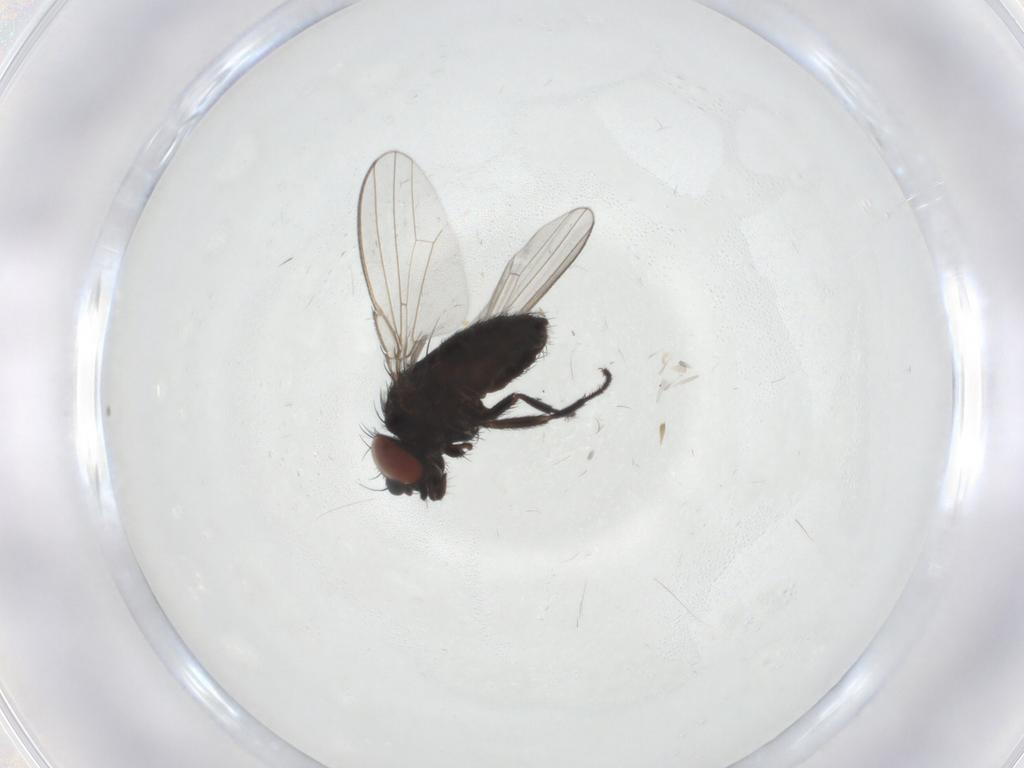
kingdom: Animalia
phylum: Arthropoda
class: Insecta
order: Diptera
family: Milichiidae
